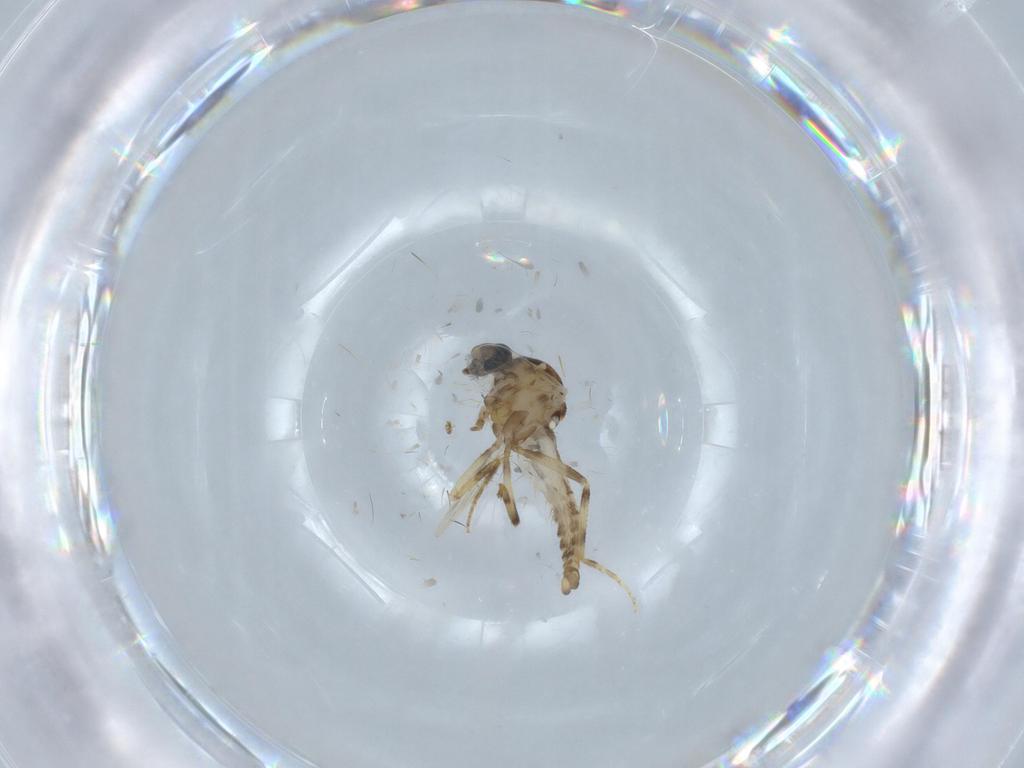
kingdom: Animalia
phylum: Arthropoda
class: Insecta
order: Diptera
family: Ceratopogonidae
